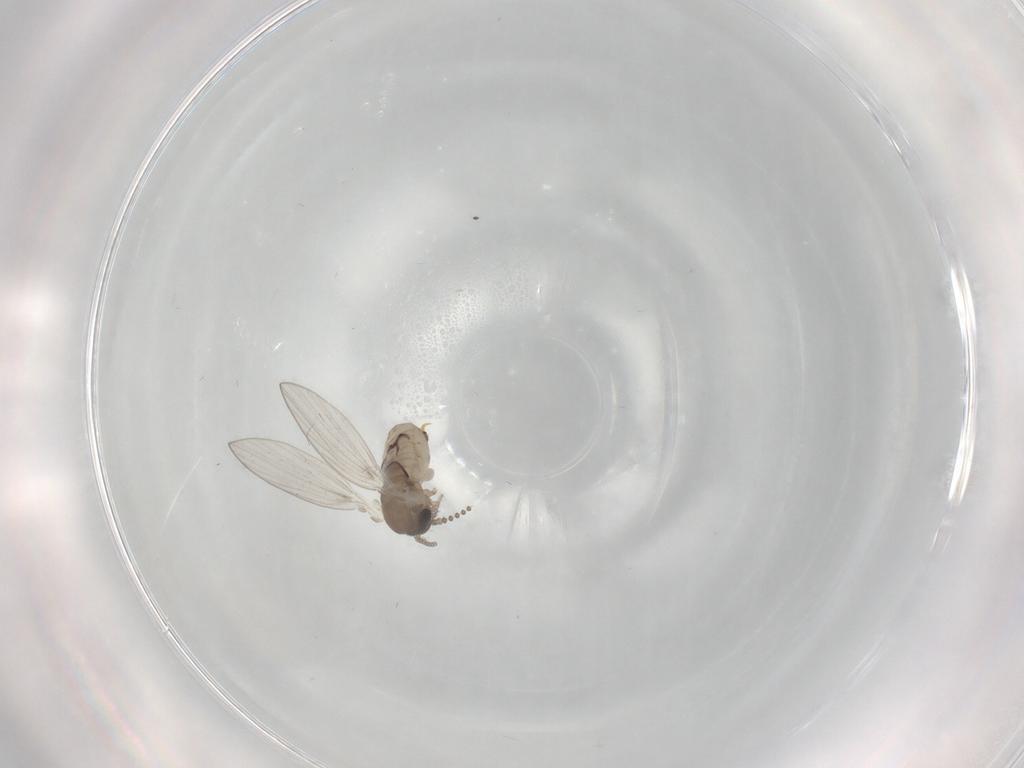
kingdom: Animalia
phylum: Arthropoda
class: Insecta
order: Diptera
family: Psychodidae
